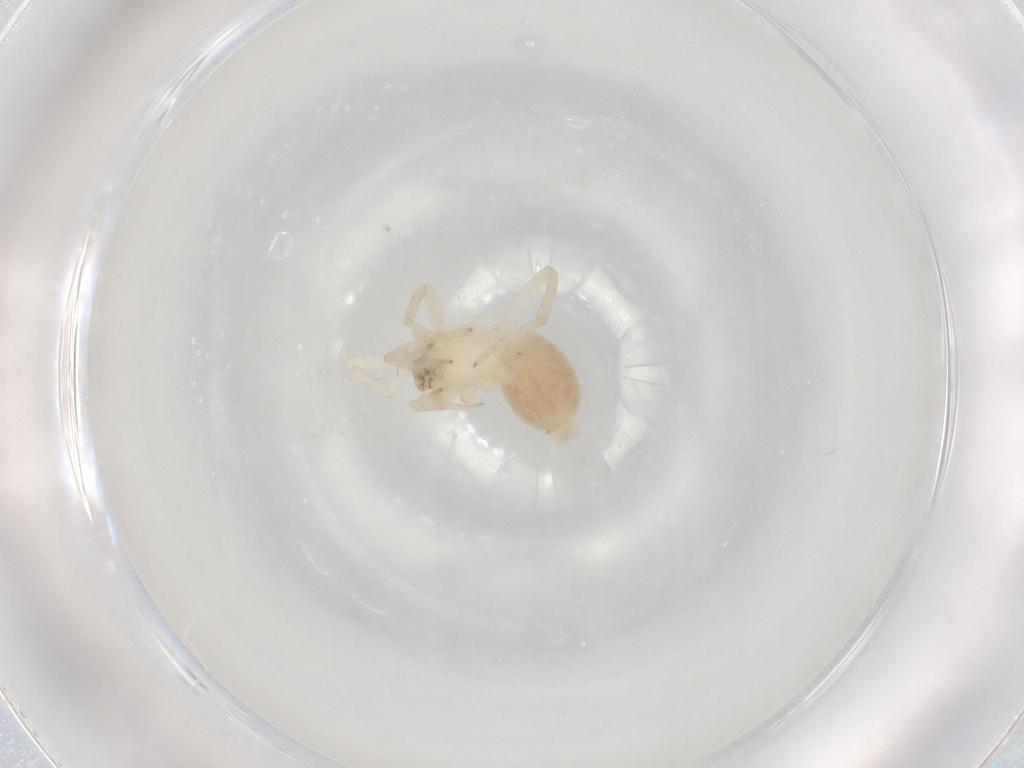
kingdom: Animalia
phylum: Arthropoda
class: Arachnida
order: Araneae
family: Gnaphosidae
